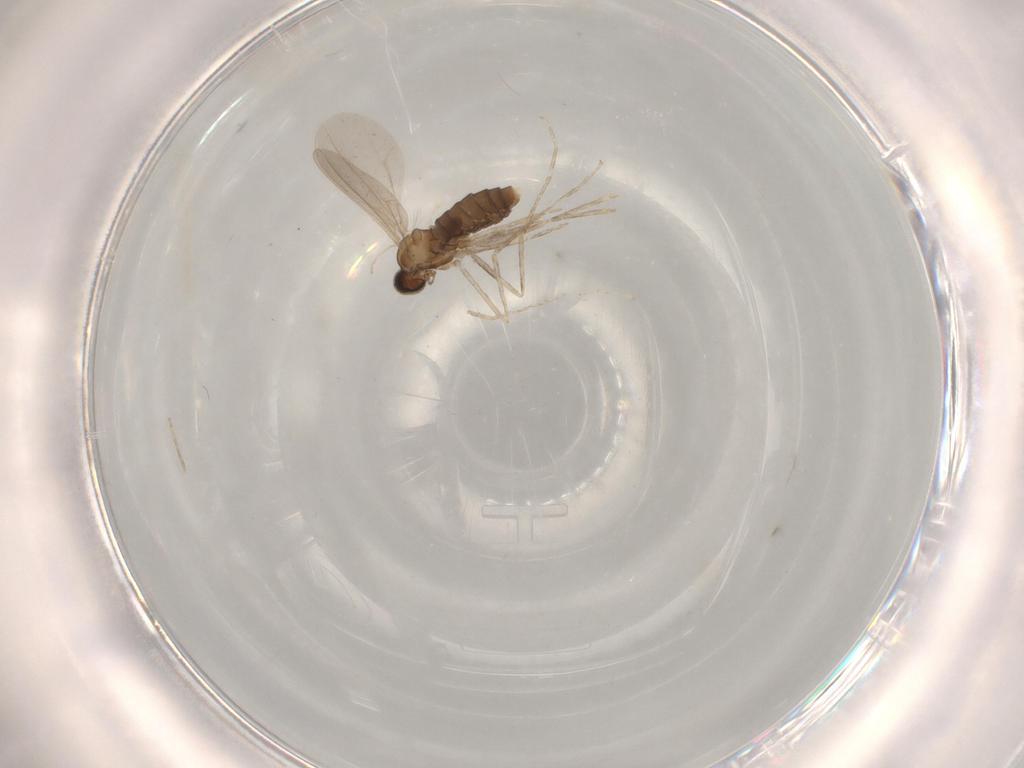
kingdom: Animalia
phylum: Arthropoda
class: Insecta
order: Diptera
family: Cecidomyiidae
